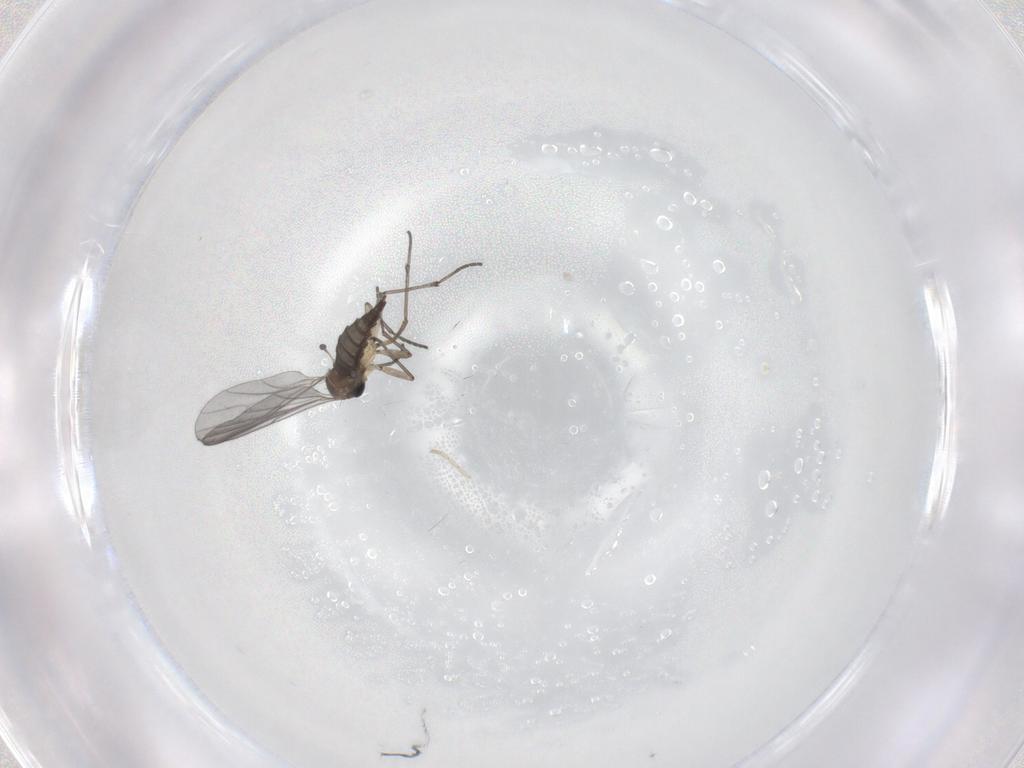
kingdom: Animalia
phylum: Arthropoda
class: Insecta
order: Diptera
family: Cecidomyiidae
